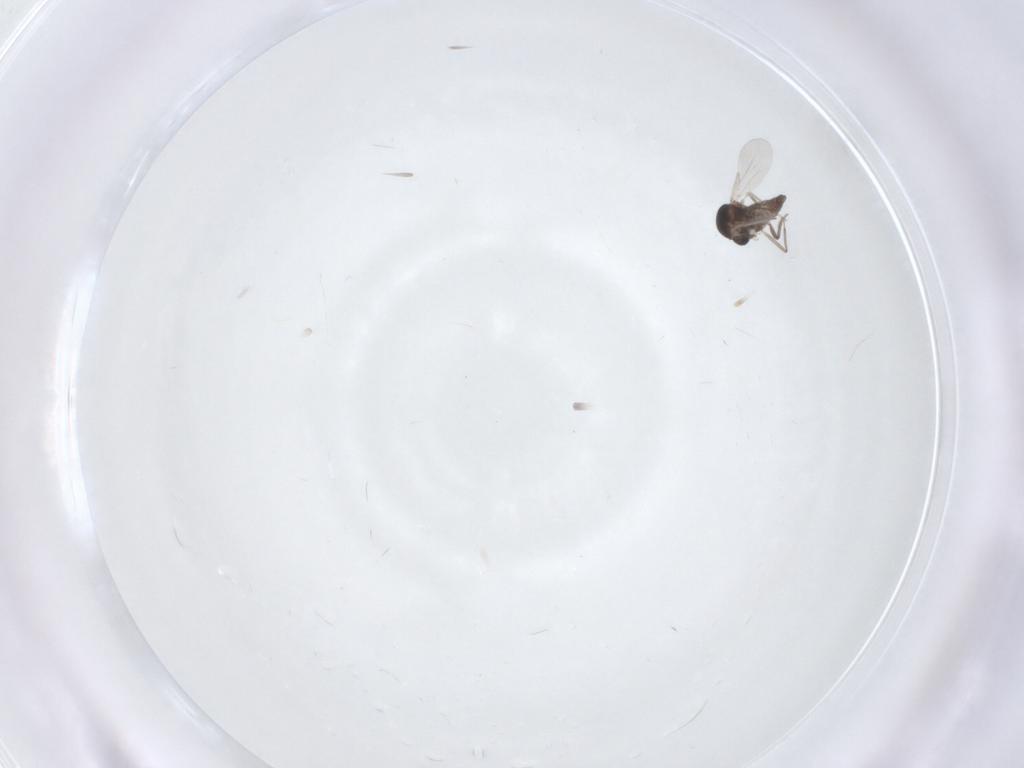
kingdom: Animalia
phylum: Arthropoda
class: Insecta
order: Diptera
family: Ceratopogonidae
